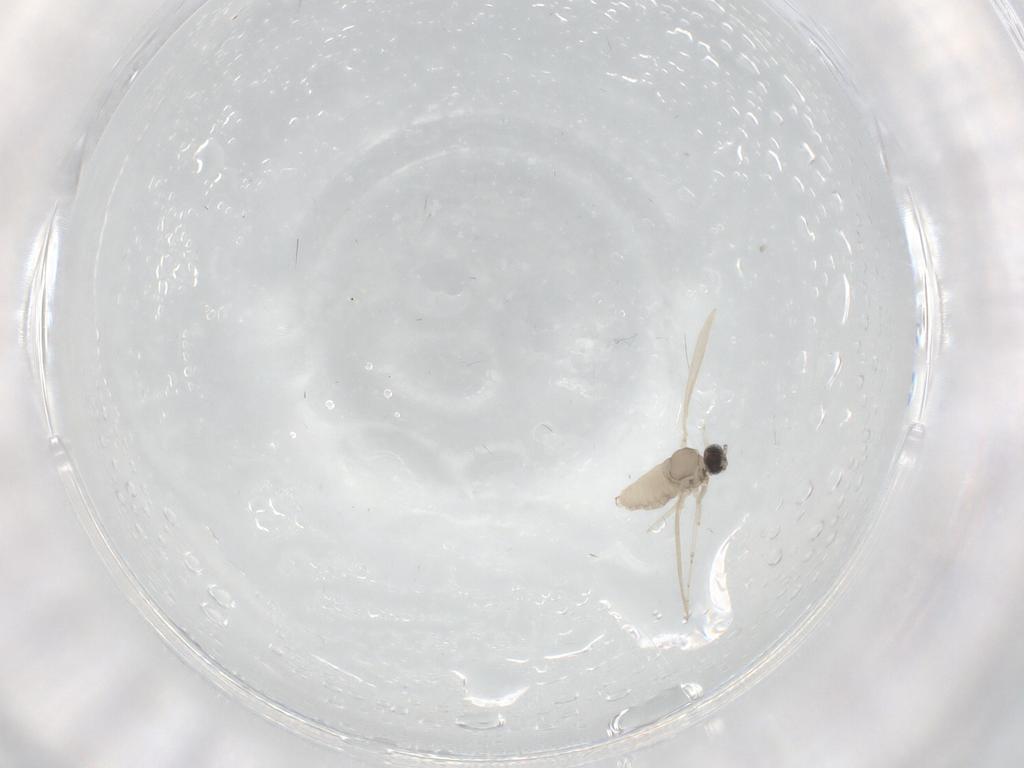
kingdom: Animalia
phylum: Arthropoda
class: Insecta
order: Diptera
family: Cecidomyiidae
